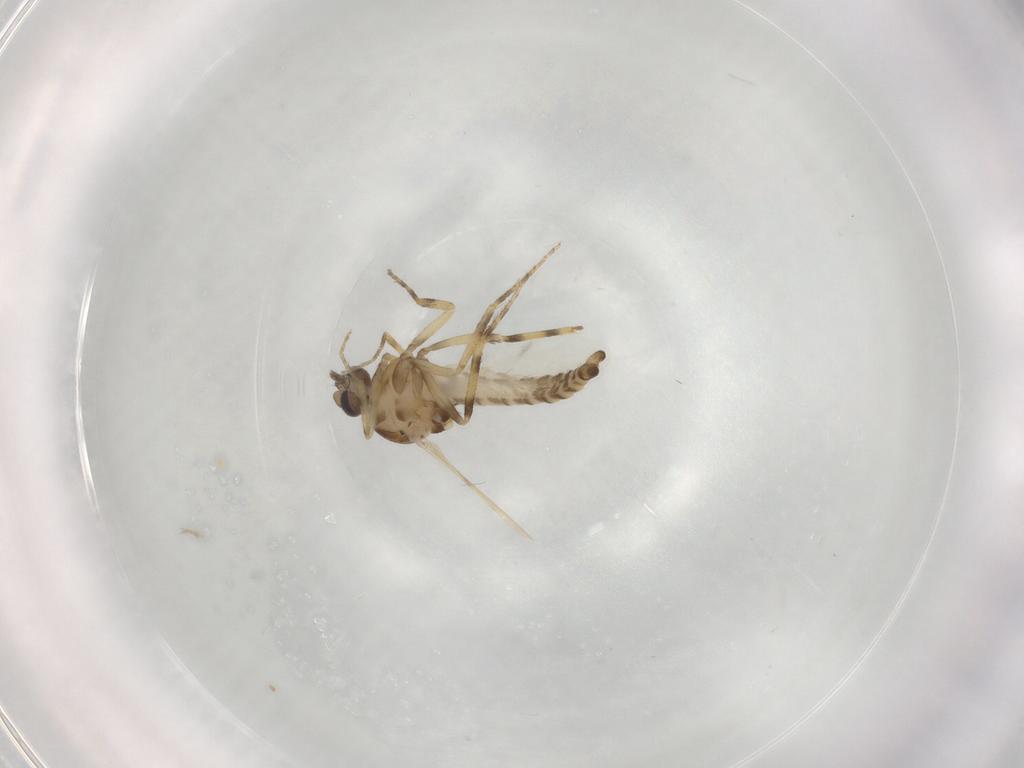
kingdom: Animalia
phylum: Arthropoda
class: Insecta
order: Diptera
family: Ceratopogonidae
